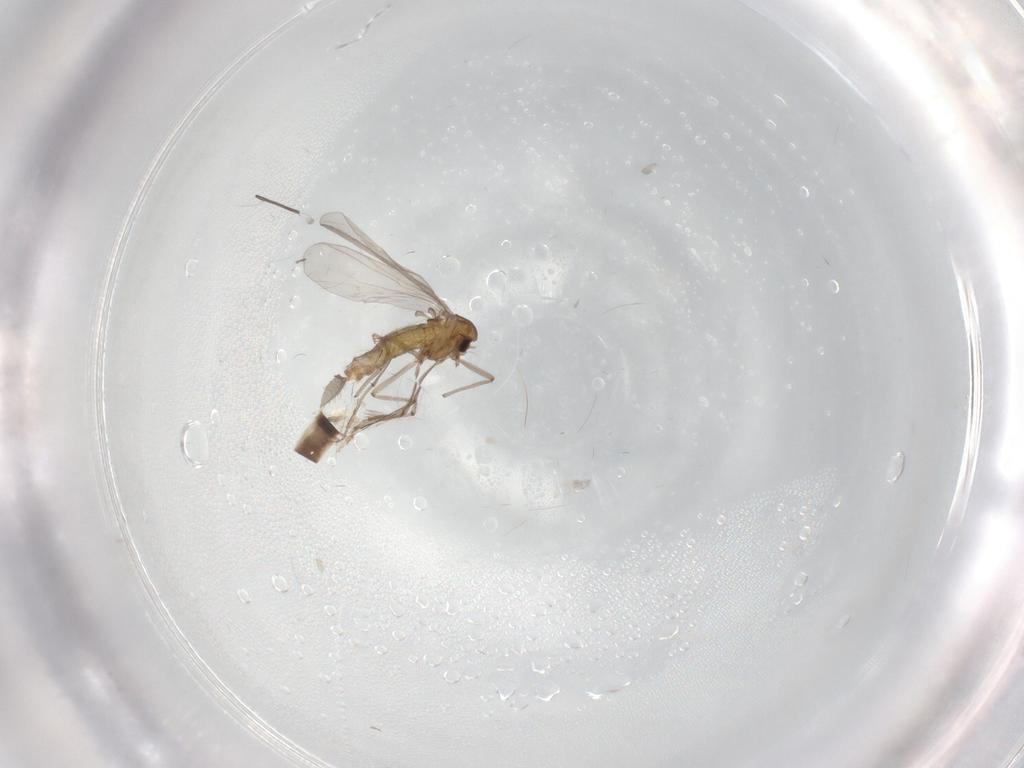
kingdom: Animalia
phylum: Arthropoda
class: Insecta
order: Diptera
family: Chironomidae
